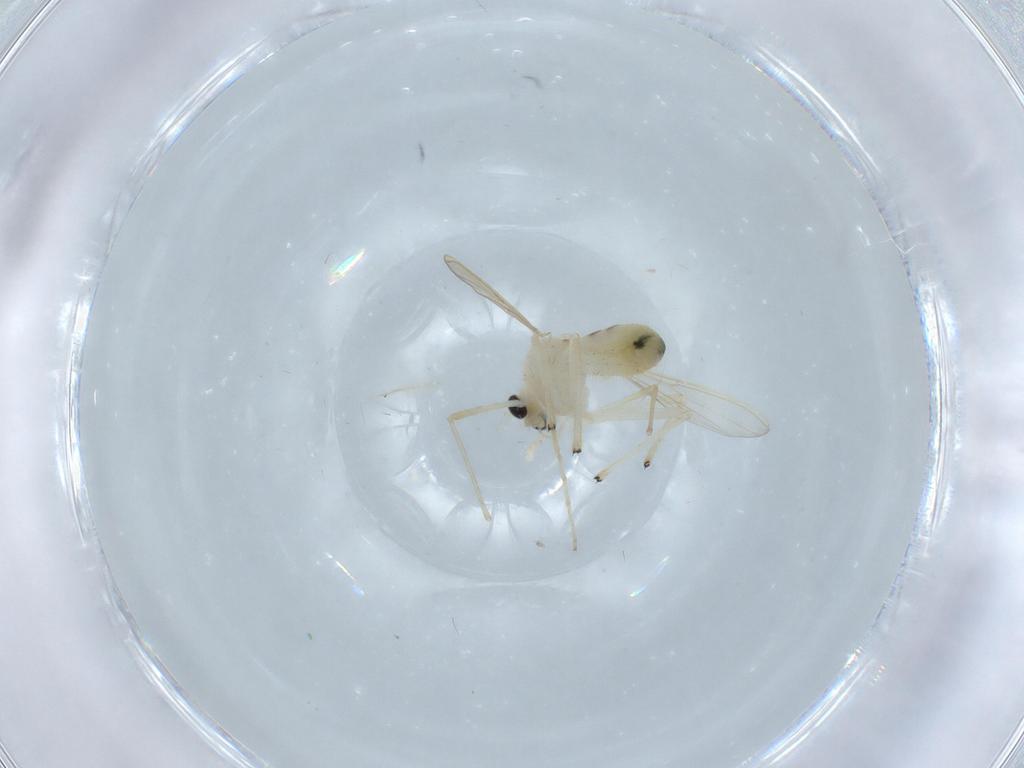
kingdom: Animalia
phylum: Arthropoda
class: Insecta
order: Diptera
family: Chironomidae
